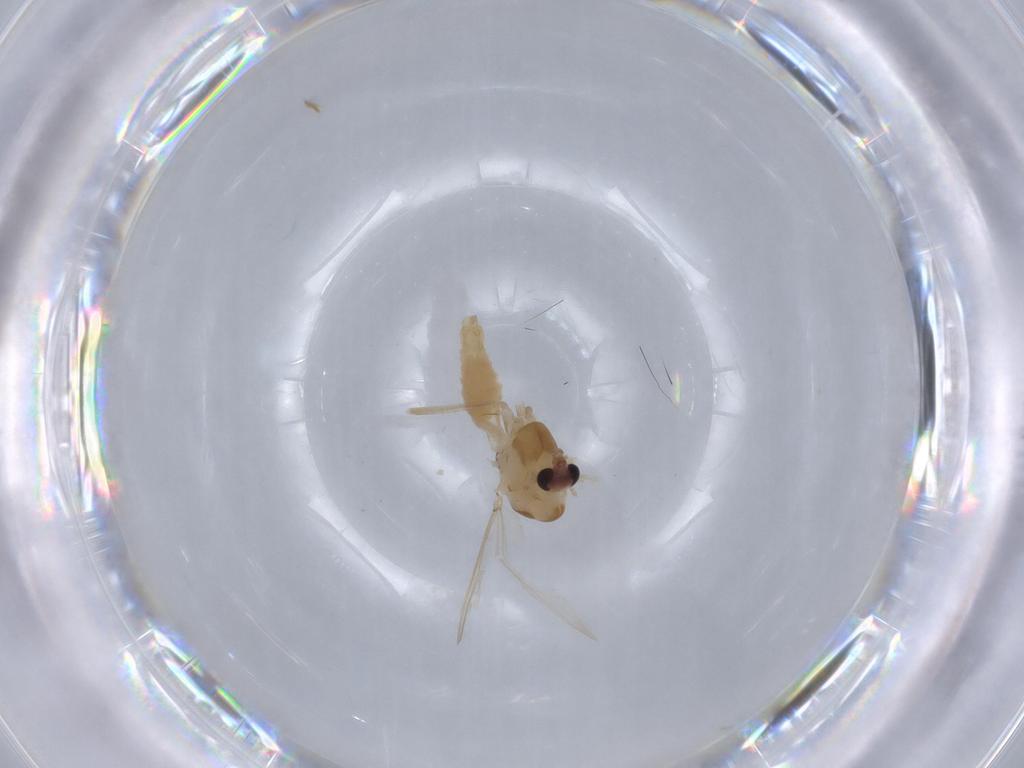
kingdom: Animalia
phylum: Arthropoda
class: Insecta
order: Diptera
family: Chironomidae
